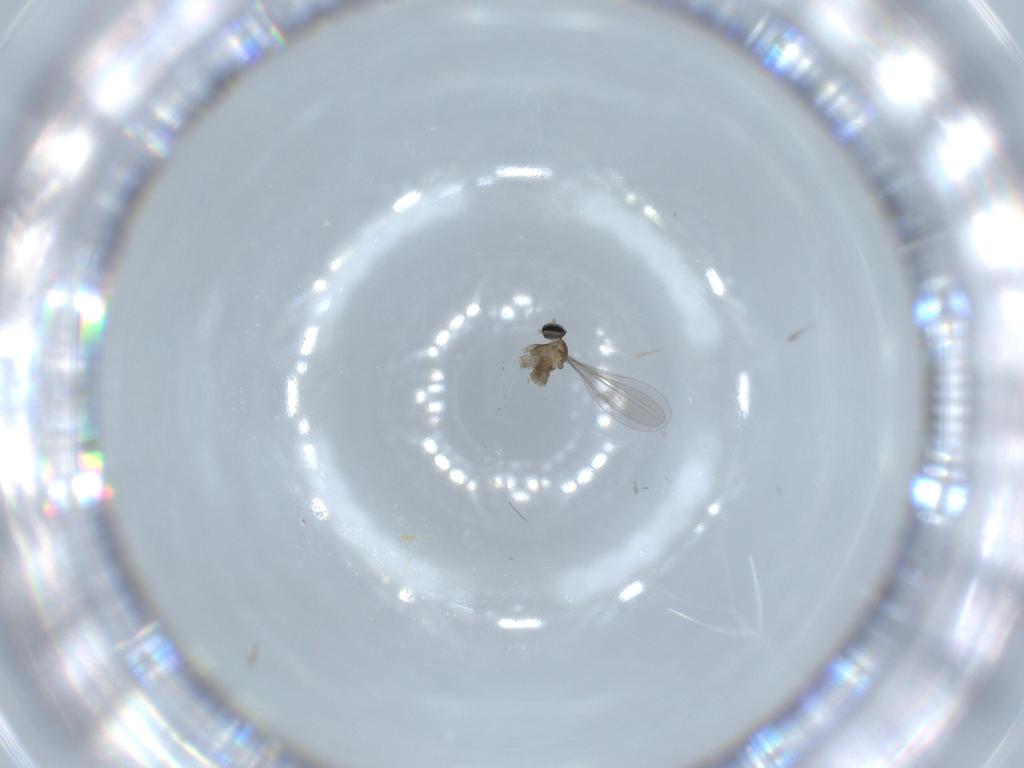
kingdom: Animalia
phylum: Arthropoda
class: Insecta
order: Diptera
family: Cecidomyiidae
